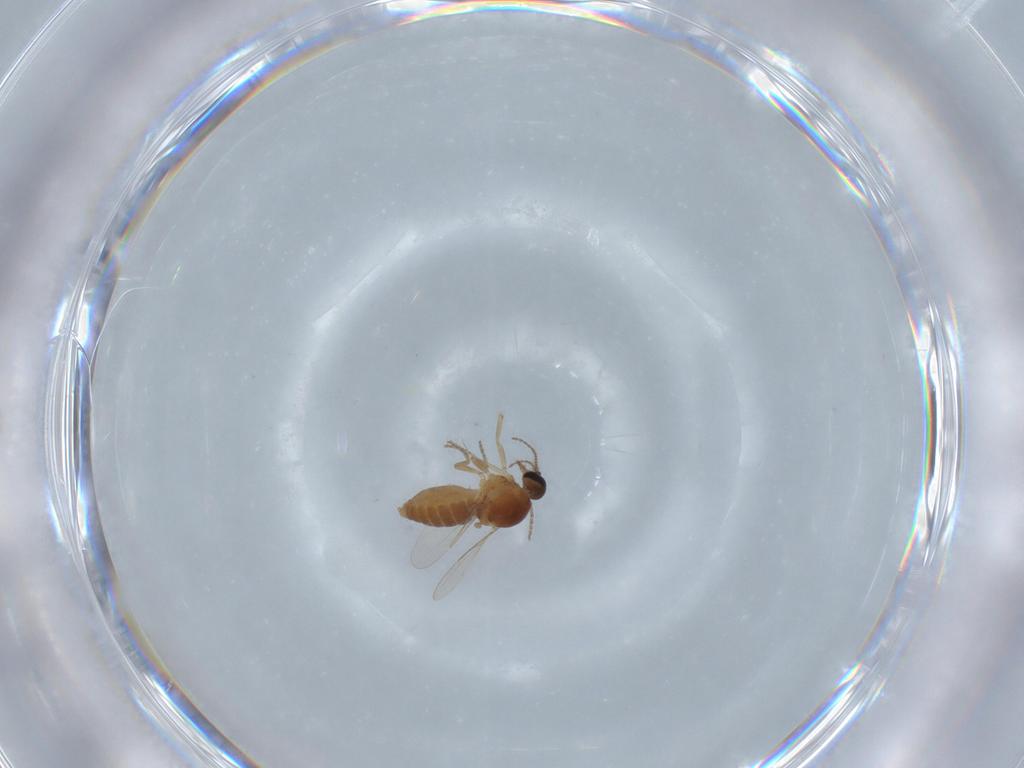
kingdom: Animalia
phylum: Arthropoda
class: Insecta
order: Diptera
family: Ceratopogonidae
